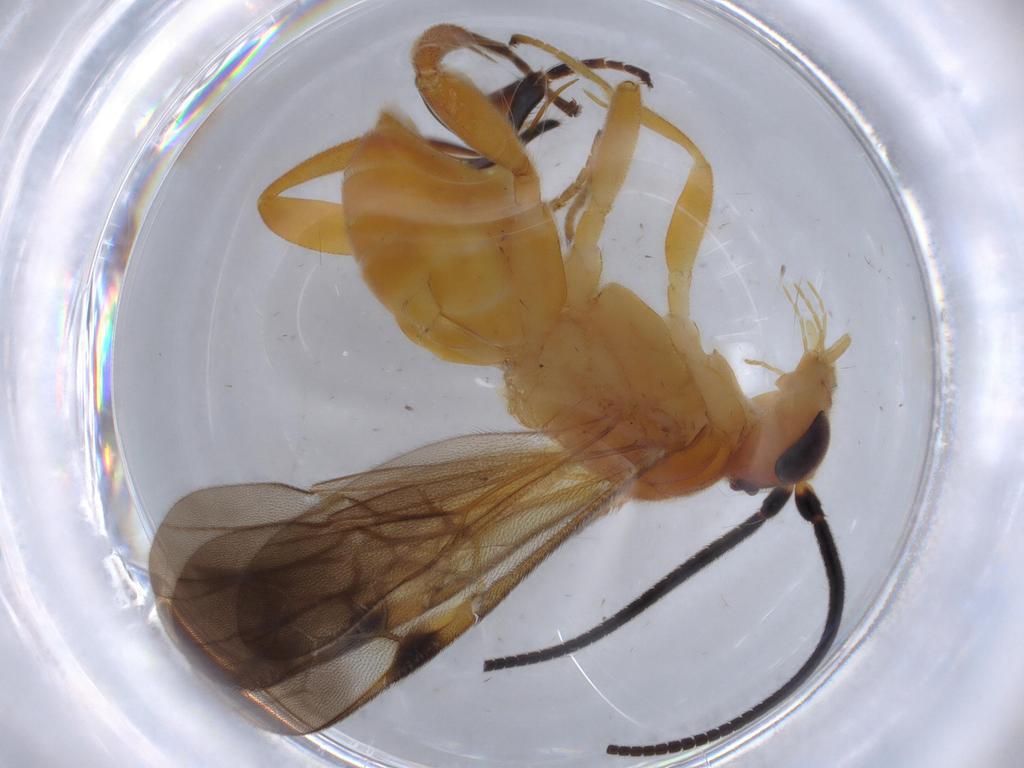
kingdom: Animalia
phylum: Arthropoda
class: Insecta
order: Hymenoptera
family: Braconidae
